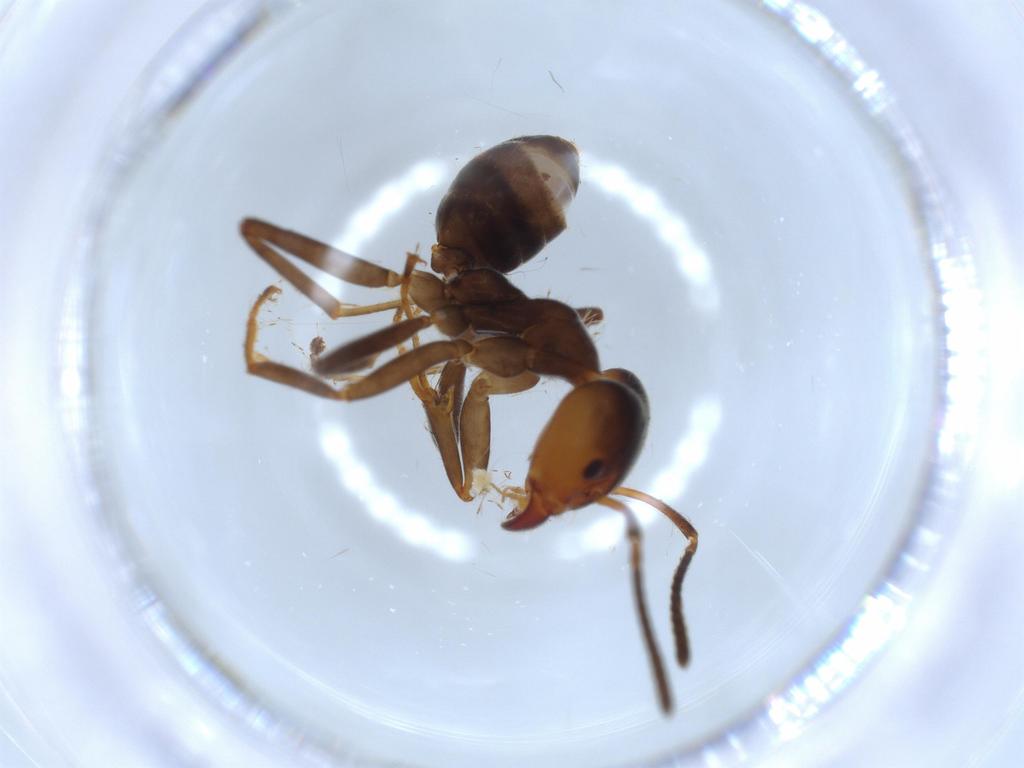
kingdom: Animalia
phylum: Arthropoda
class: Insecta
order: Hymenoptera
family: Formicidae
